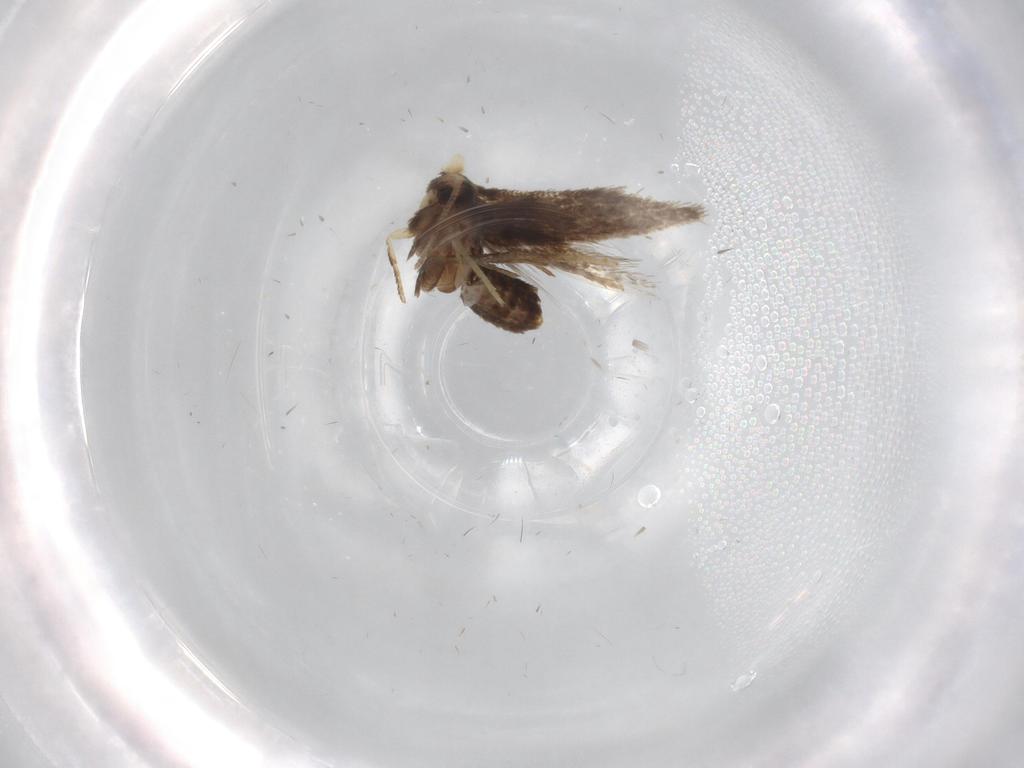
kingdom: Animalia
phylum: Arthropoda
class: Insecta
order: Lepidoptera
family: Nepticulidae
